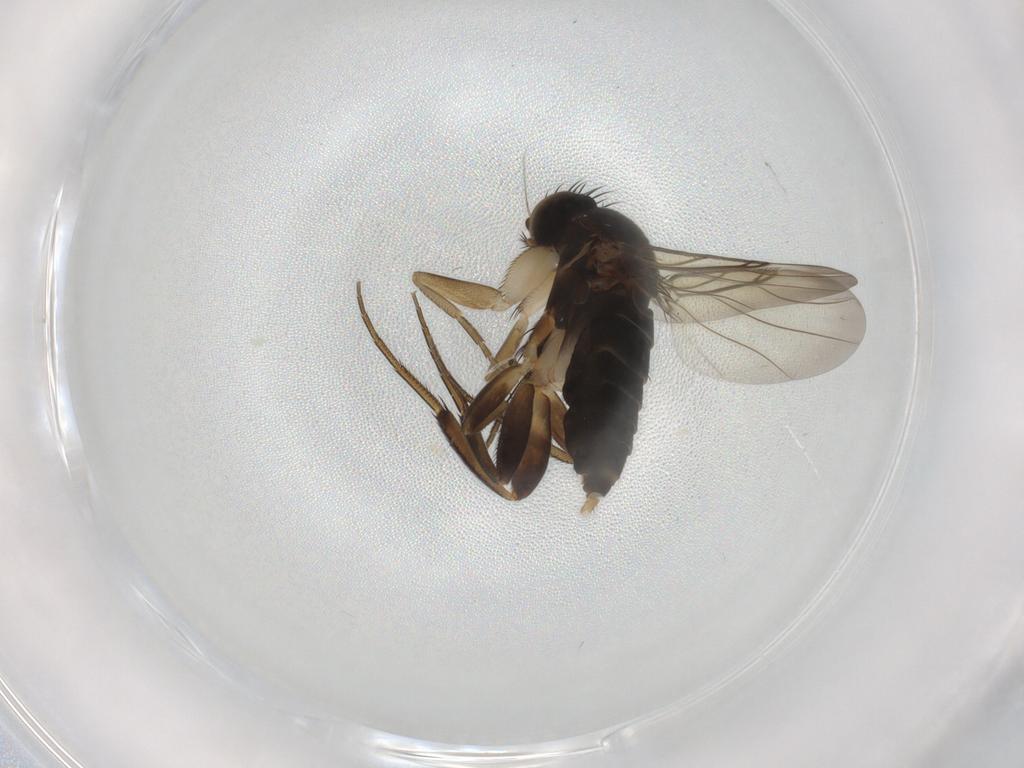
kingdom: Animalia
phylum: Arthropoda
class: Insecta
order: Diptera
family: Phoridae
